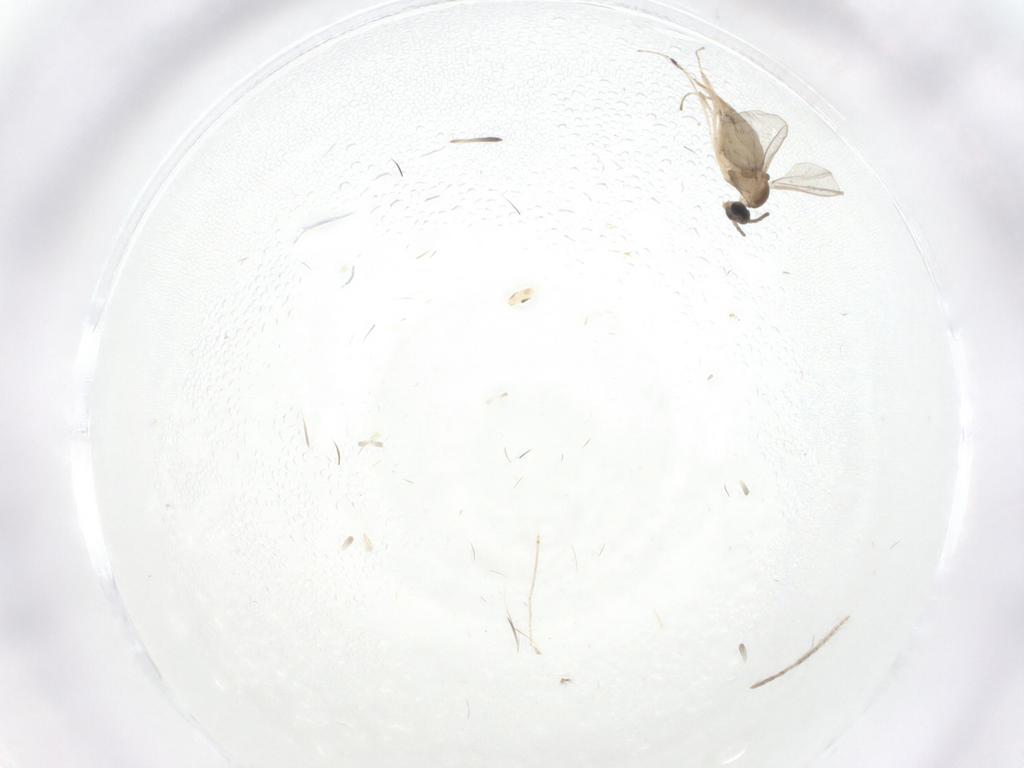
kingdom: Animalia
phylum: Arthropoda
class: Insecta
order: Diptera
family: Cecidomyiidae
